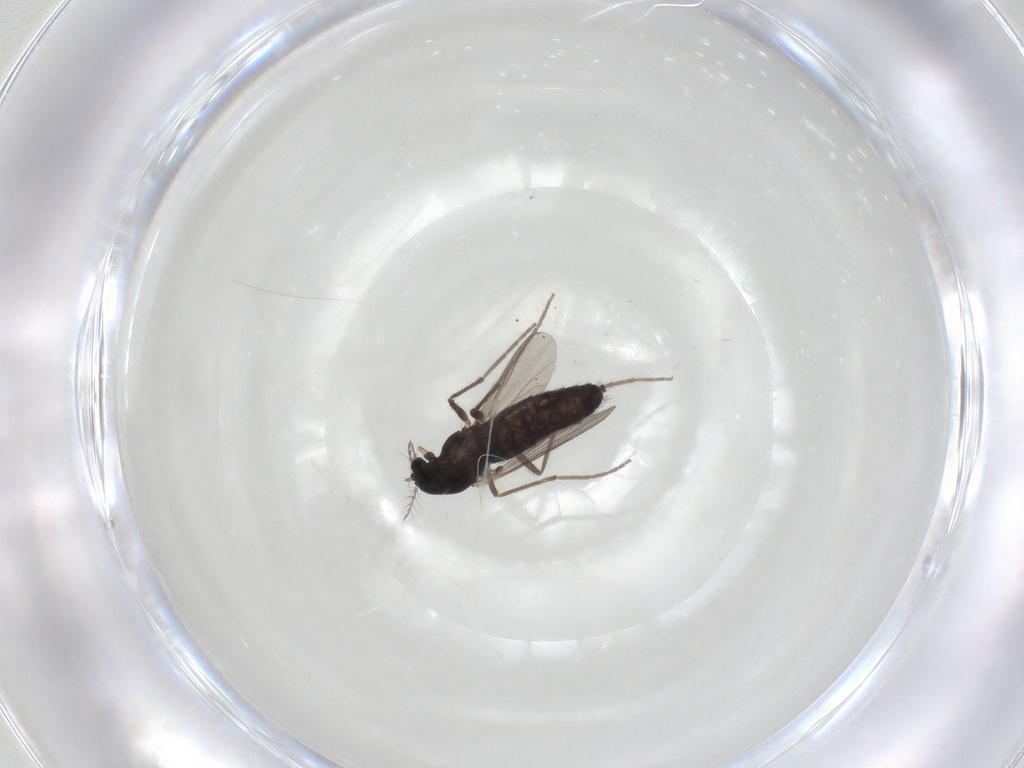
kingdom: Animalia
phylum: Arthropoda
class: Insecta
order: Diptera
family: Chironomidae
